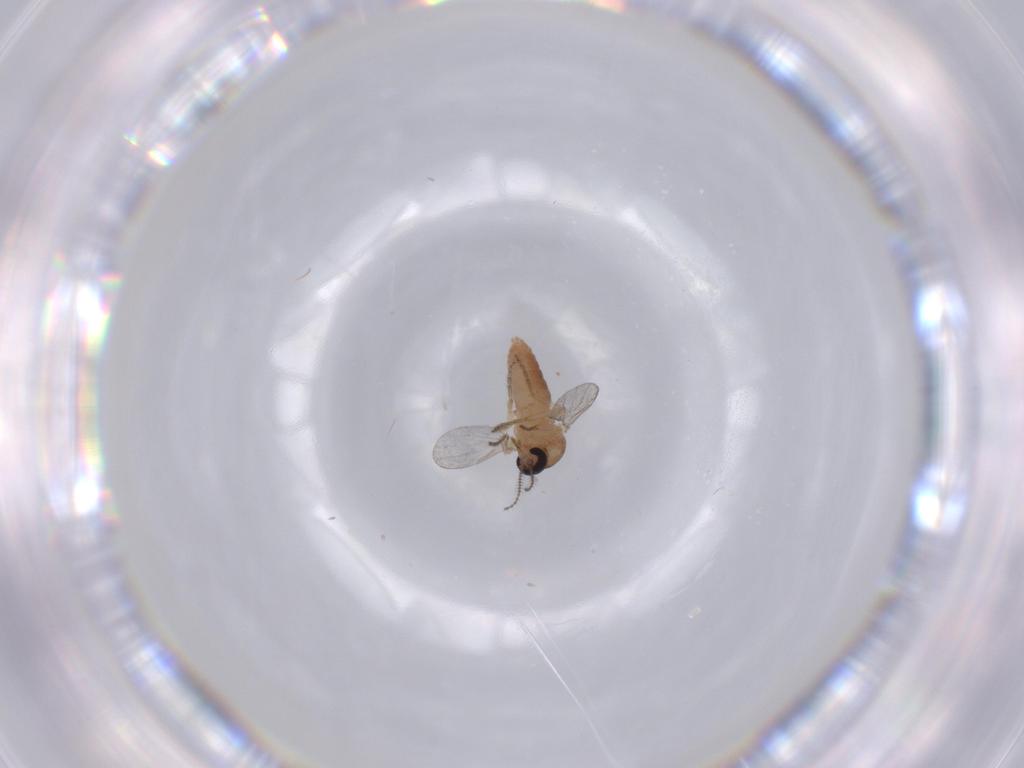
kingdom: Animalia
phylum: Arthropoda
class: Insecta
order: Diptera
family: Ceratopogonidae
